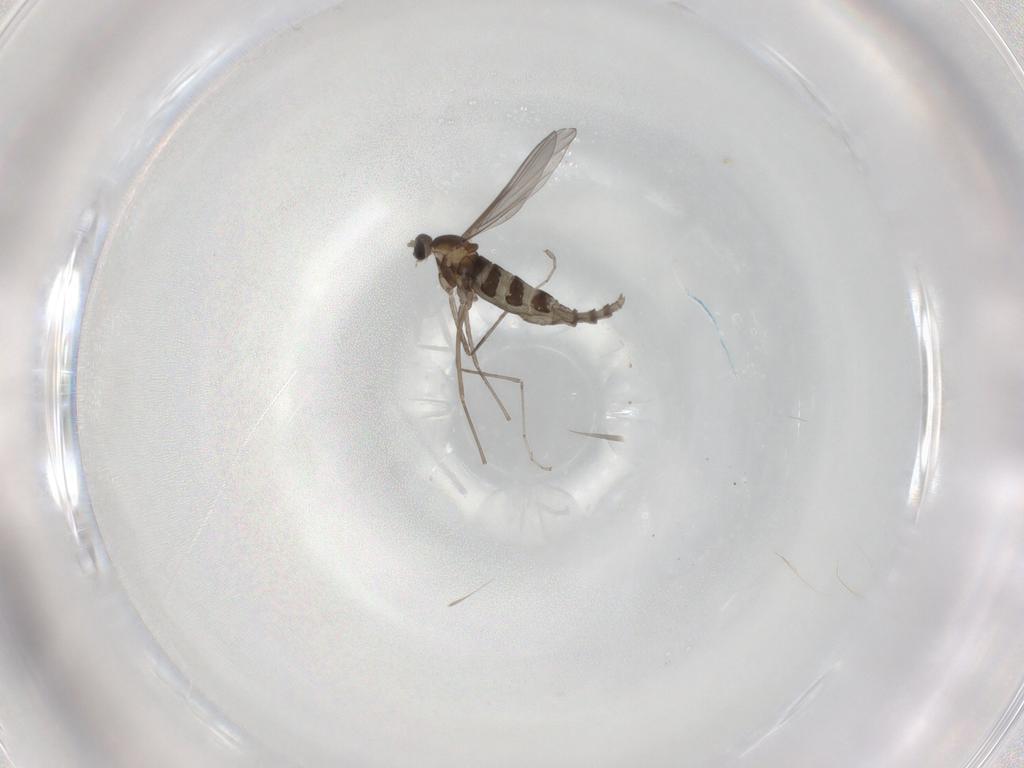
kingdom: Animalia
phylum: Arthropoda
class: Insecta
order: Diptera
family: Cecidomyiidae
